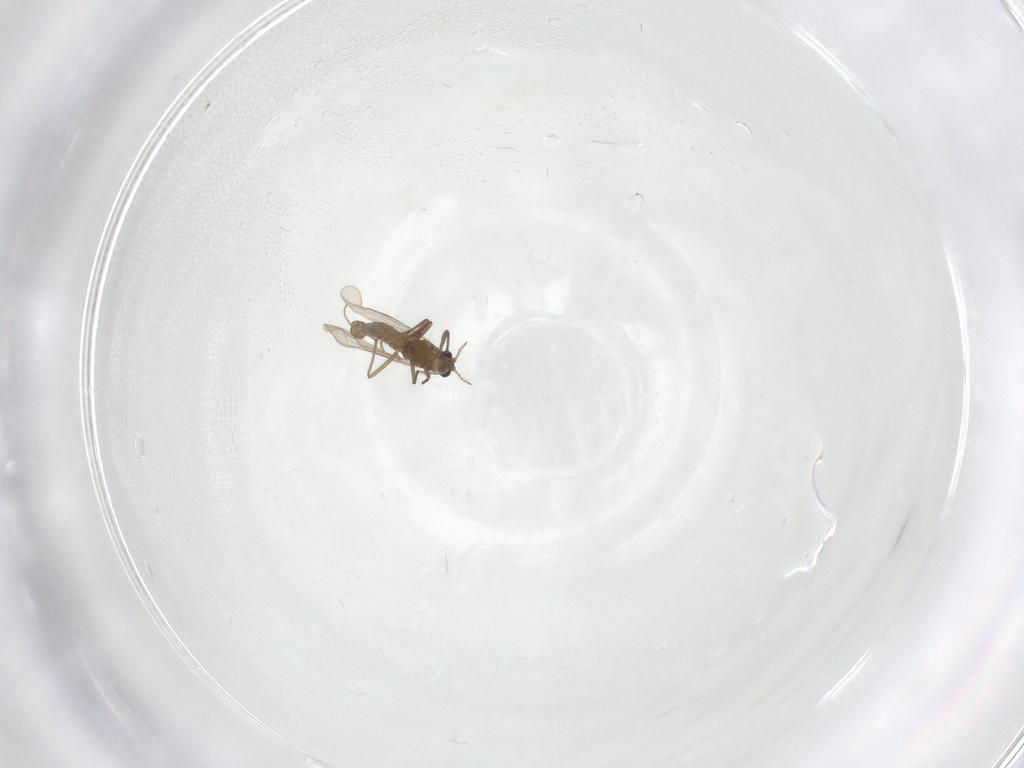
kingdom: Animalia
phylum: Arthropoda
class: Insecta
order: Diptera
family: Chironomidae
